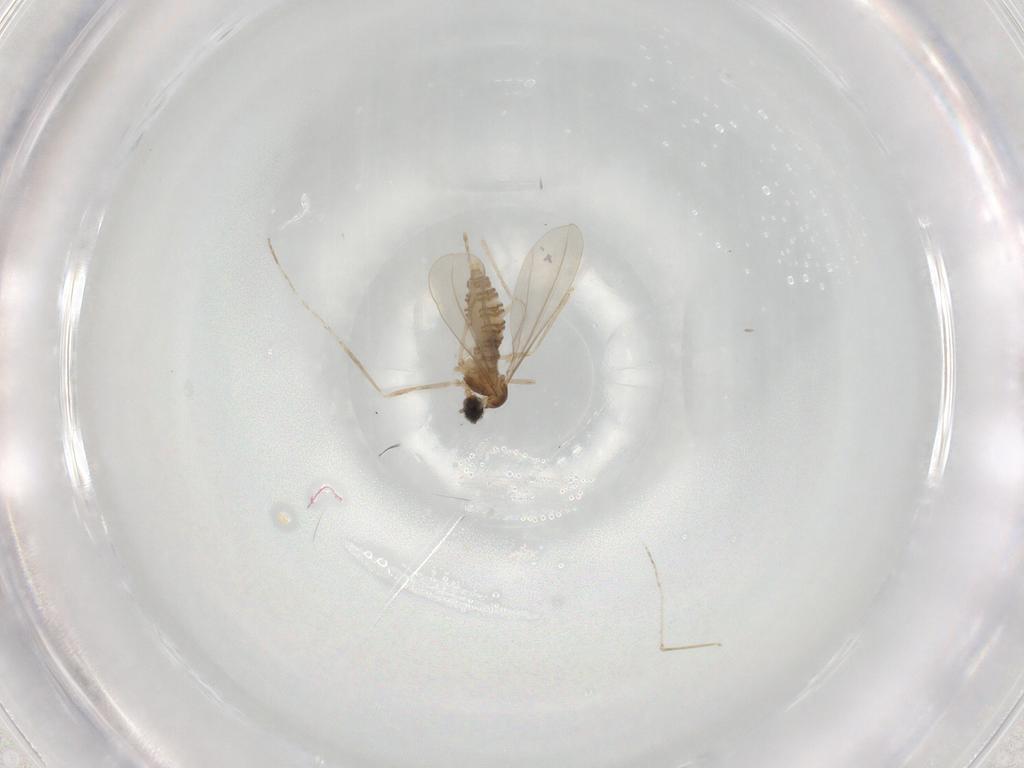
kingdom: Animalia
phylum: Arthropoda
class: Insecta
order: Diptera
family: Cecidomyiidae
